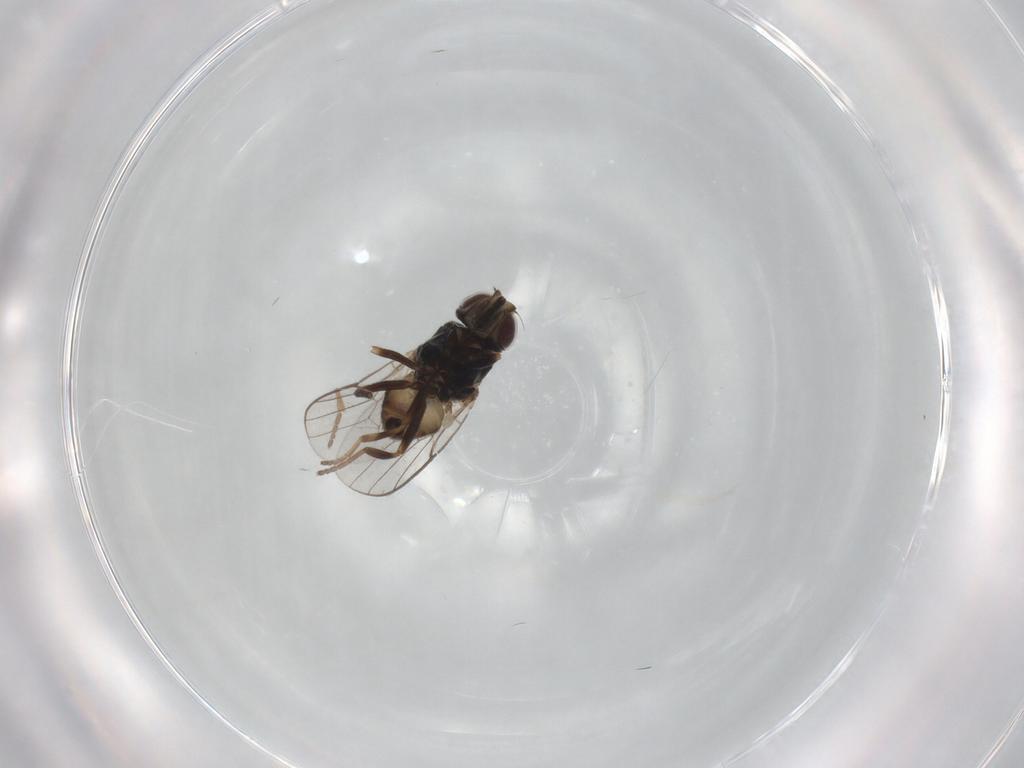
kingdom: Animalia
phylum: Arthropoda
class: Insecta
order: Diptera
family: Chloropidae
